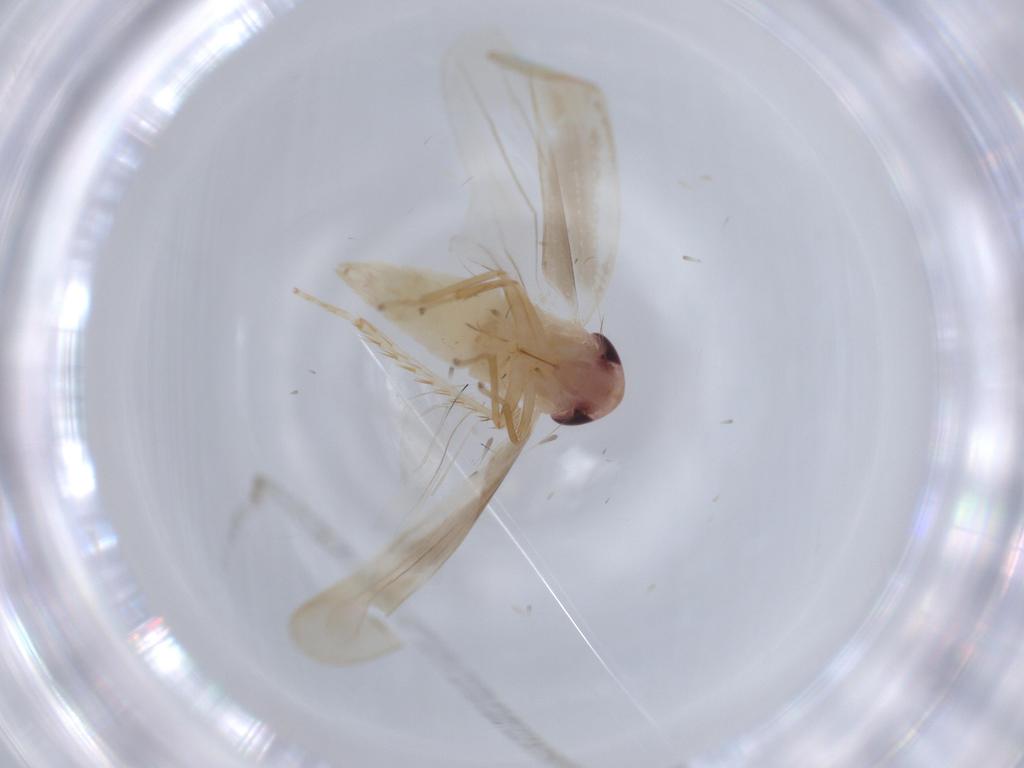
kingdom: Animalia
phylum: Arthropoda
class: Insecta
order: Hemiptera
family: Cicadellidae
